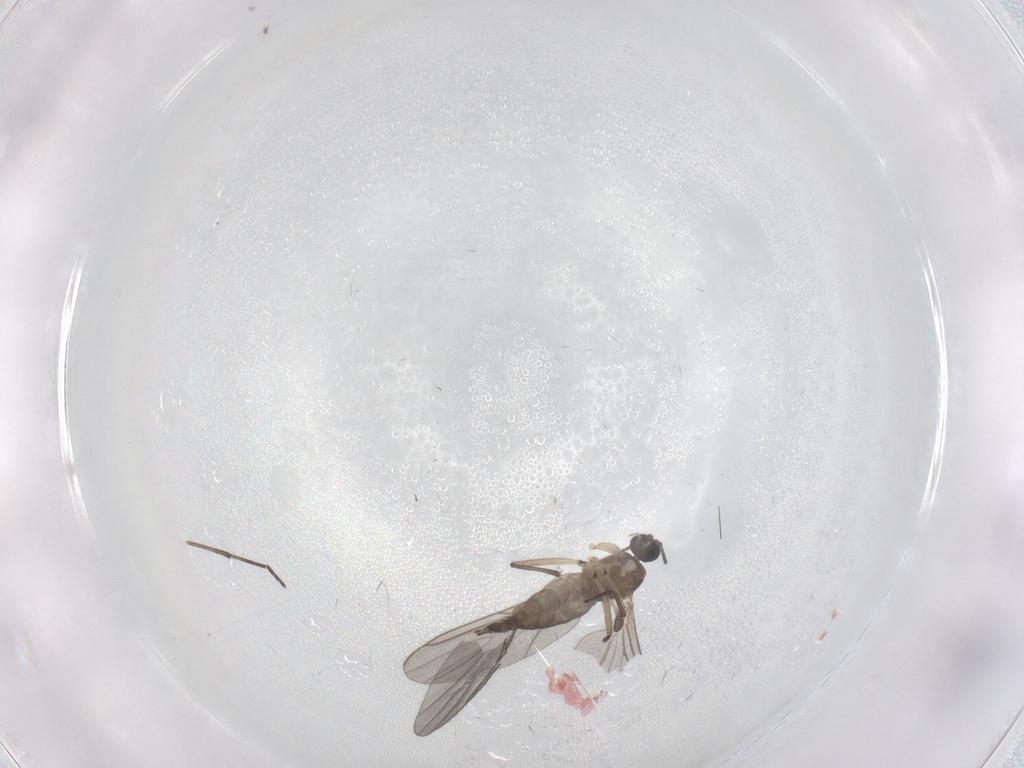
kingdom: Animalia
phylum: Arthropoda
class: Insecta
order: Diptera
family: Sciaridae
